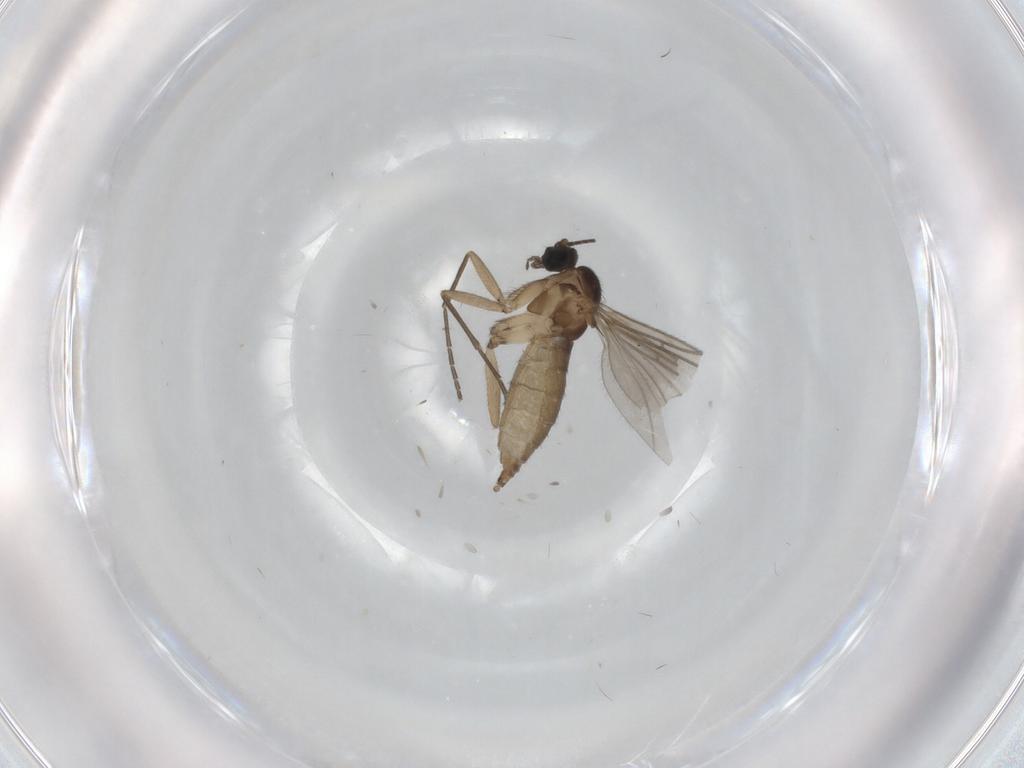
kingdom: Animalia
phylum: Arthropoda
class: Insecta
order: Diptera
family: Sciaridae
